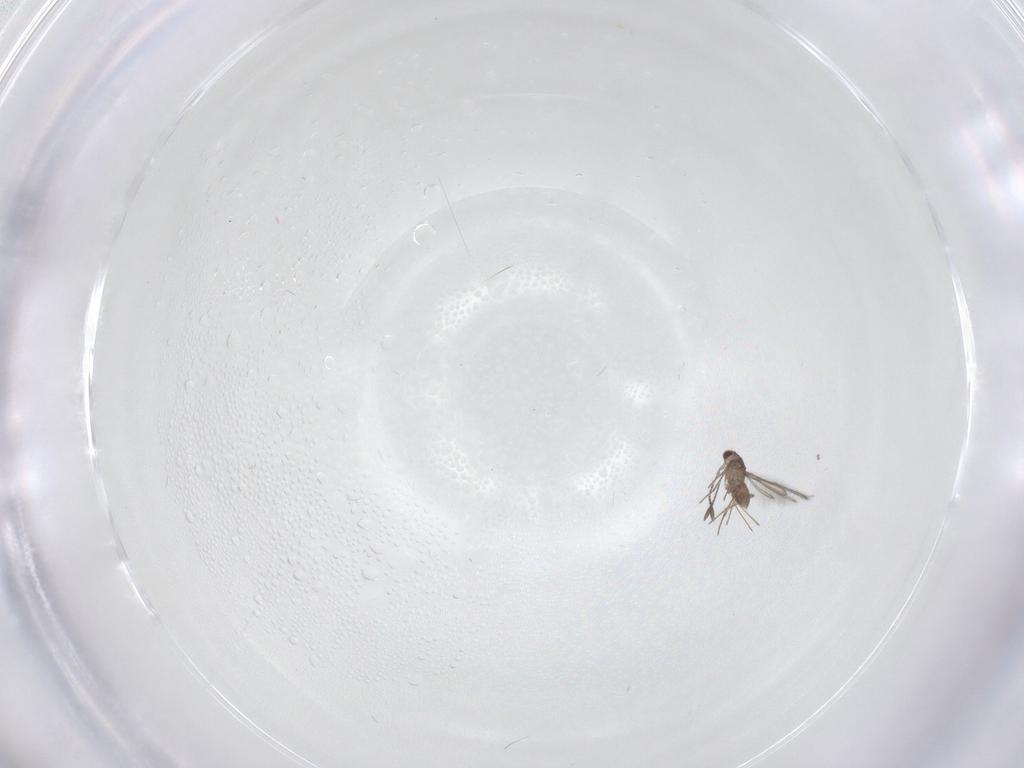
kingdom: Animalia
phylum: Arthropoda
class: Insecta
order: Hymenoptera
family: Mymaridae
